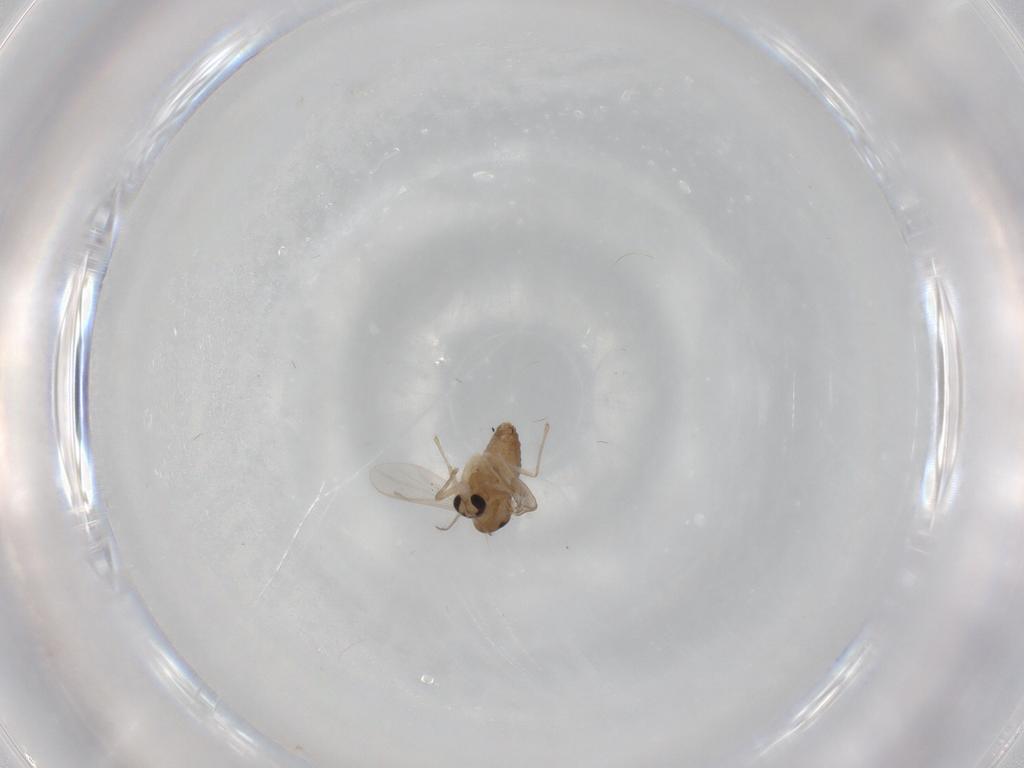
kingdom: Animalia
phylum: Arthropoda
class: Insecta
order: Diptera
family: Chironomidae
